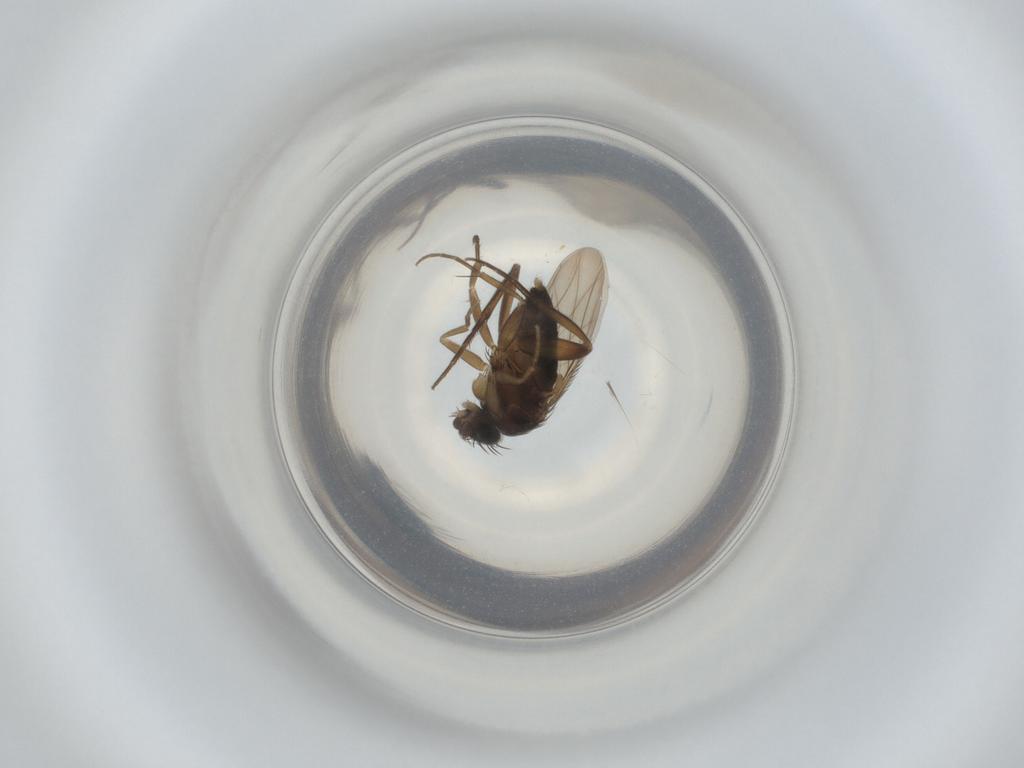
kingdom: Animalia
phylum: Arthropoda
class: Insecta
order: Diptera
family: Phoridae
